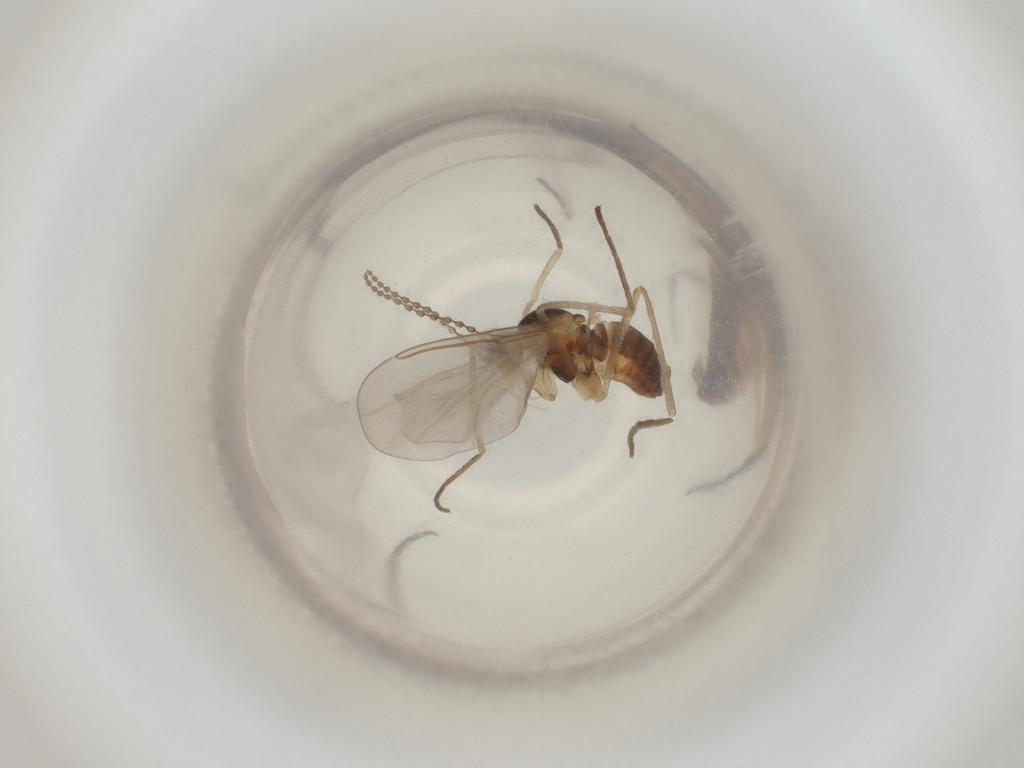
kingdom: Animalia
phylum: Arthropoda
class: Insecta
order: Diptera
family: Cecidomyiidae
